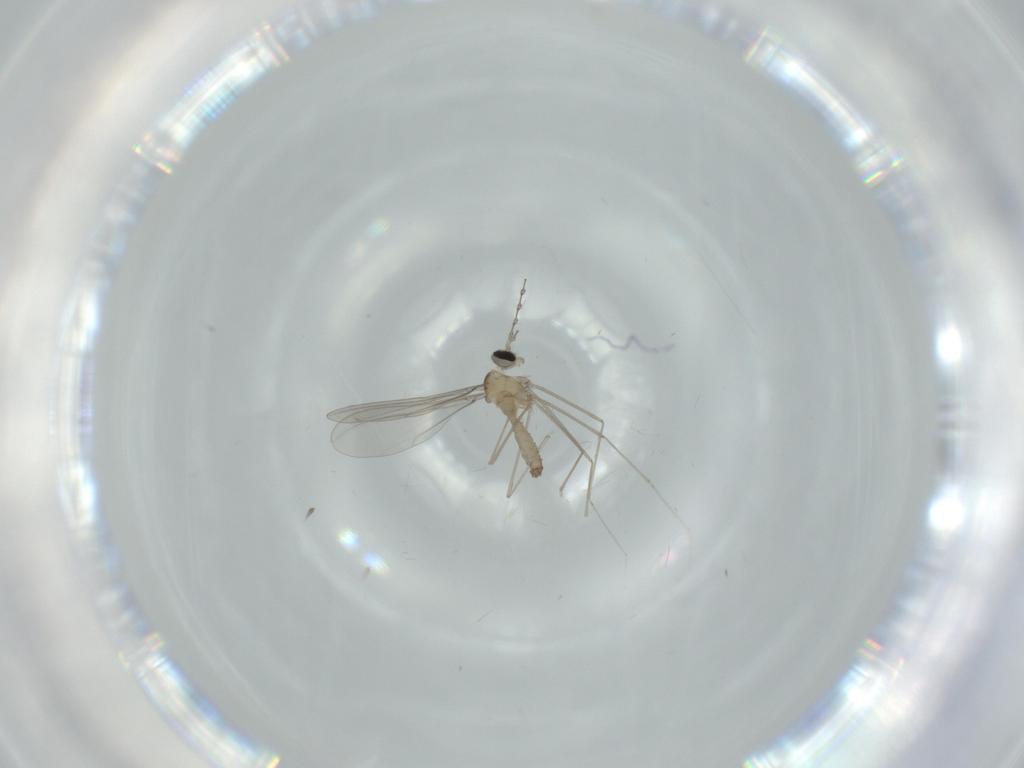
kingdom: Animalia
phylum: Arthropoda
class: Insecta
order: Diptera
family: Cecidomyiidae
